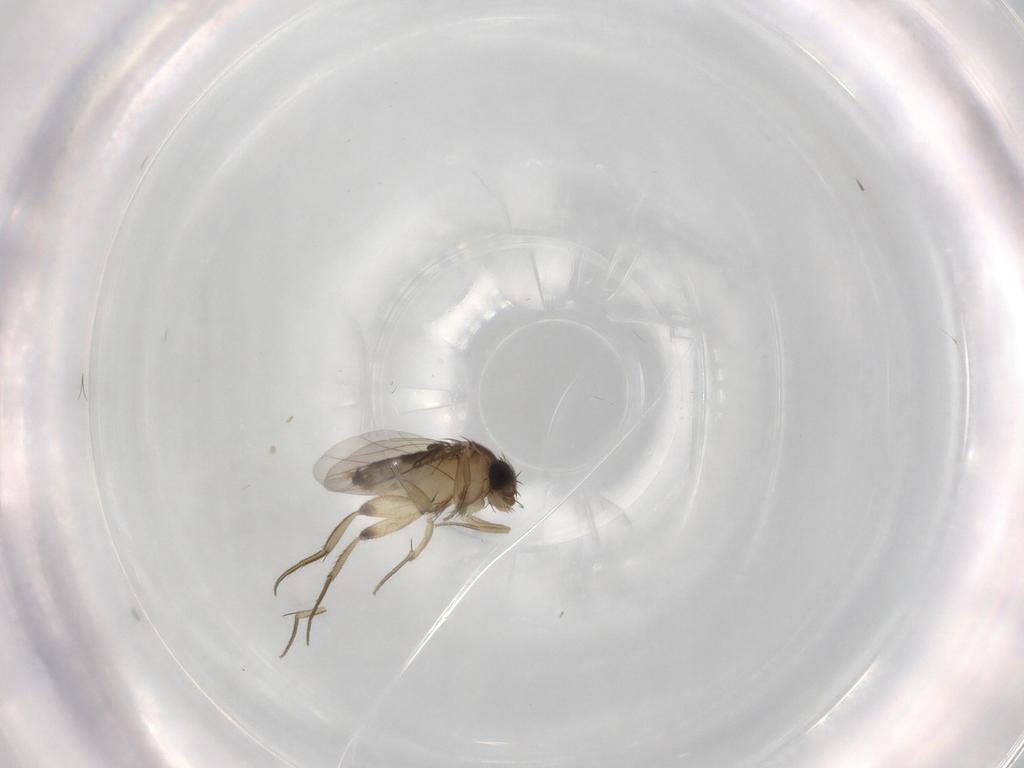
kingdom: Animalia
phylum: Arthropoda
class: Insecta
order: Diptera
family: Phoridae
